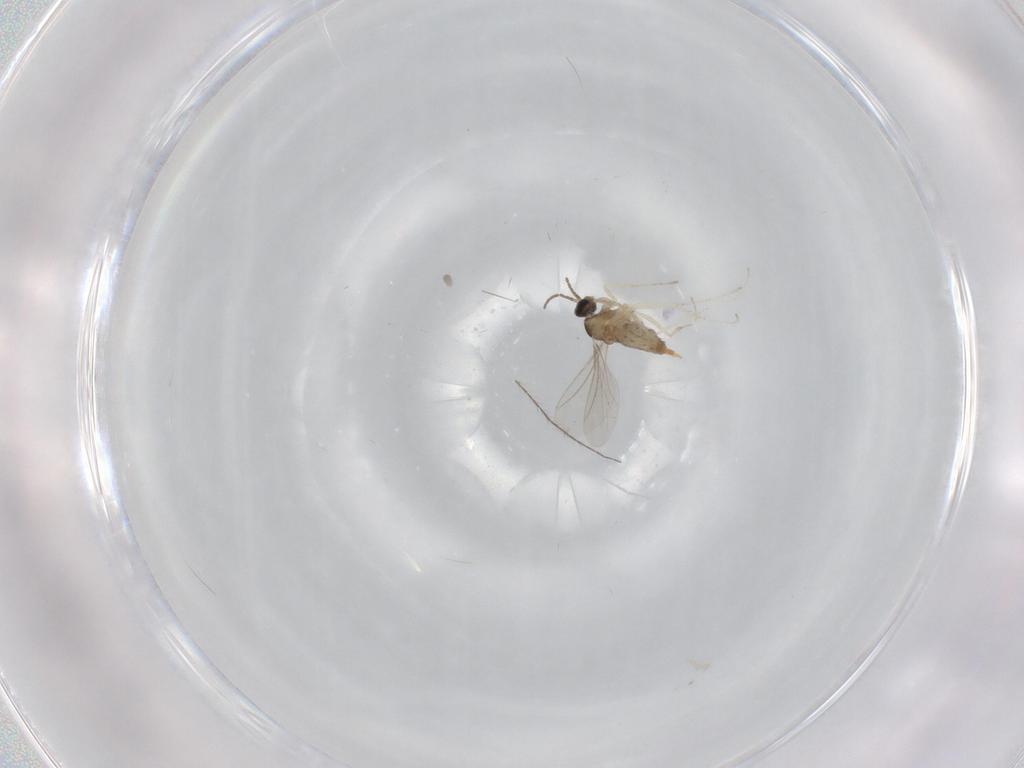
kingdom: Animalia
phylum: Arthropoda
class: Insecta
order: Diptera
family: Cecidomyiidae
